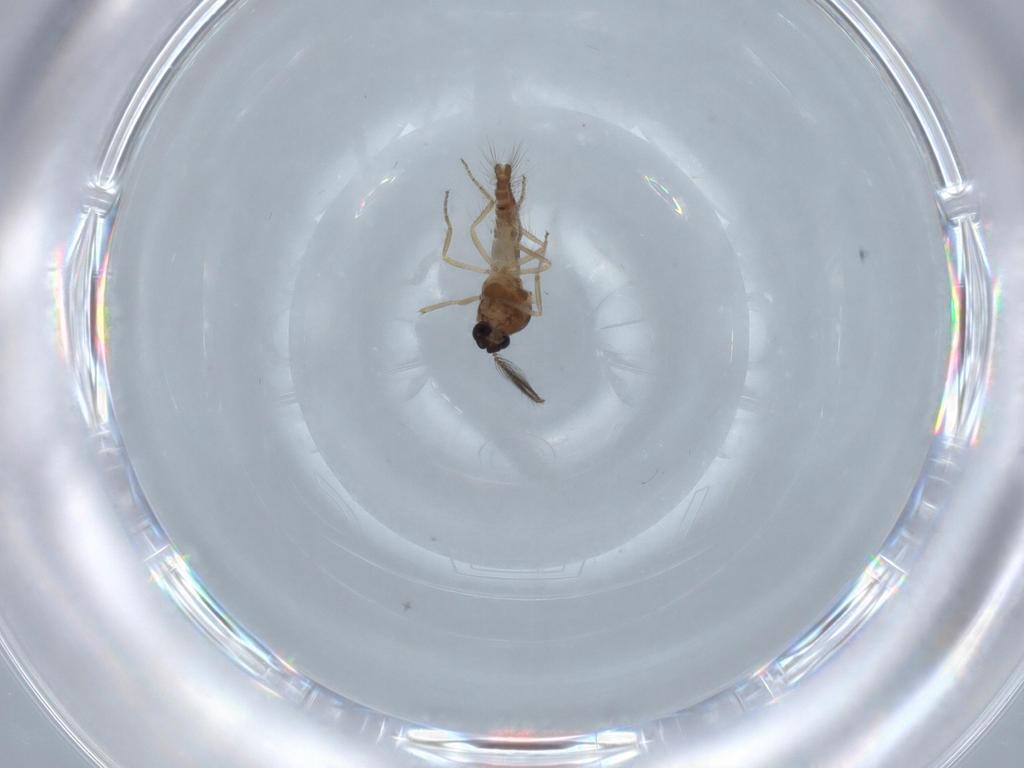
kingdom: Animalia
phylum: Arthropoda
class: Insecta
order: Diptera
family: Ceratopogonidae
